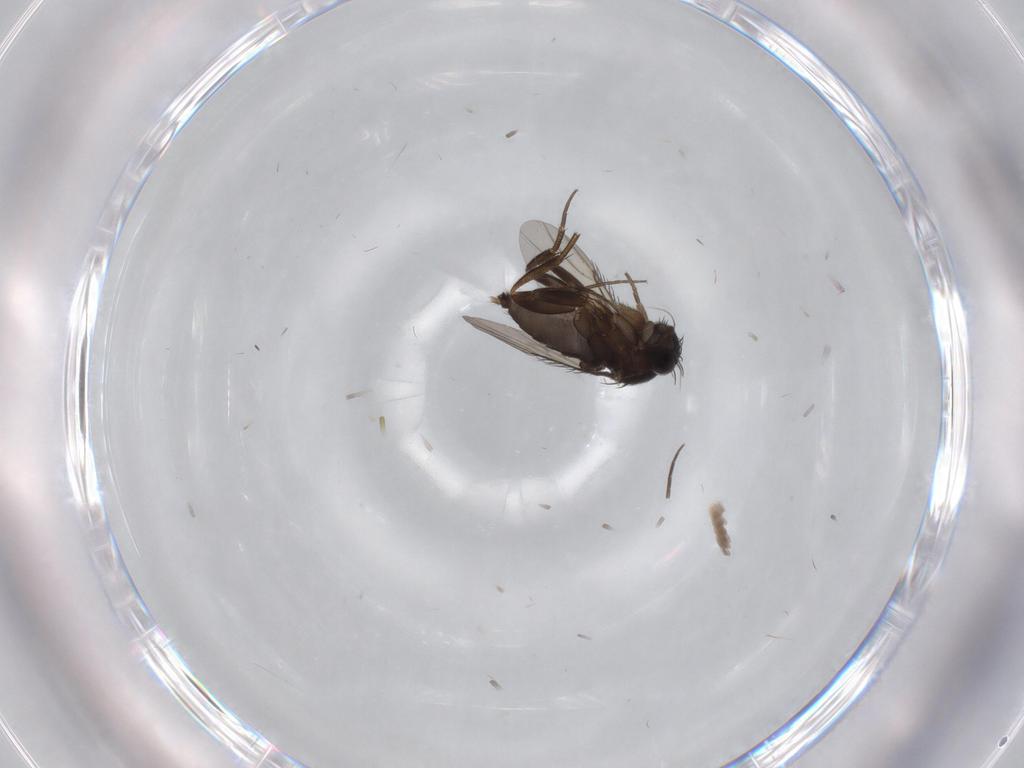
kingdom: Animalia
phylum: Arthropoda
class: Insecta
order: Diptera
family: Phoridae
